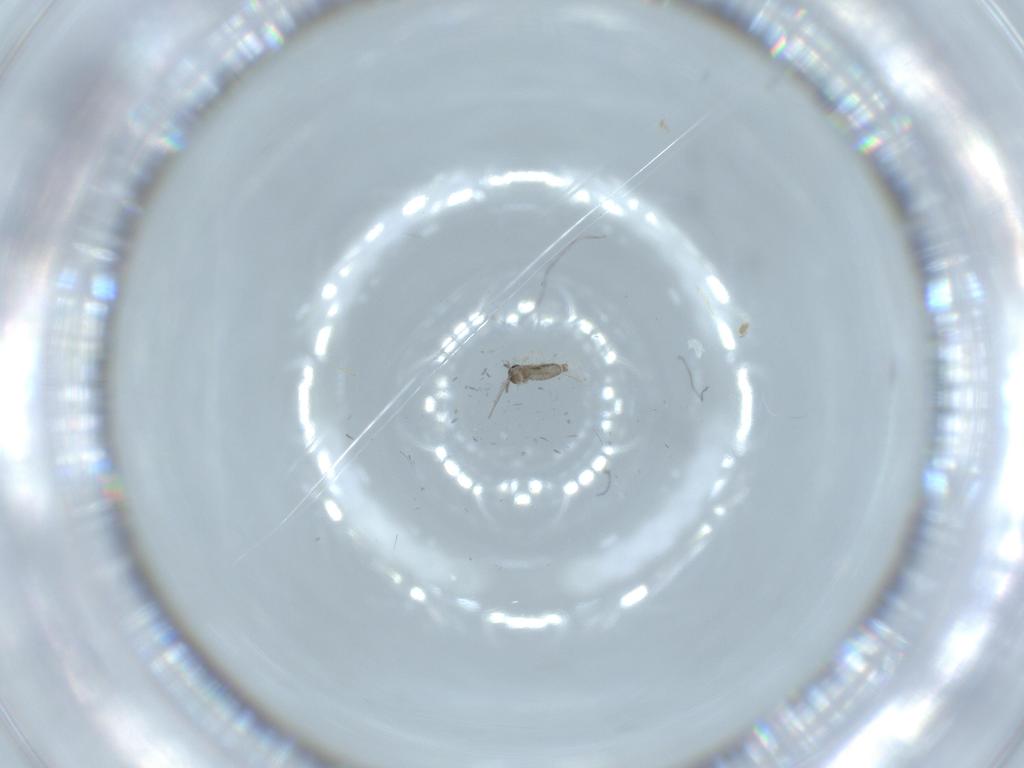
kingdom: Animalia
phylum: Arthropoda
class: Insecta
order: Diptera
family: Cecidomyiidae
